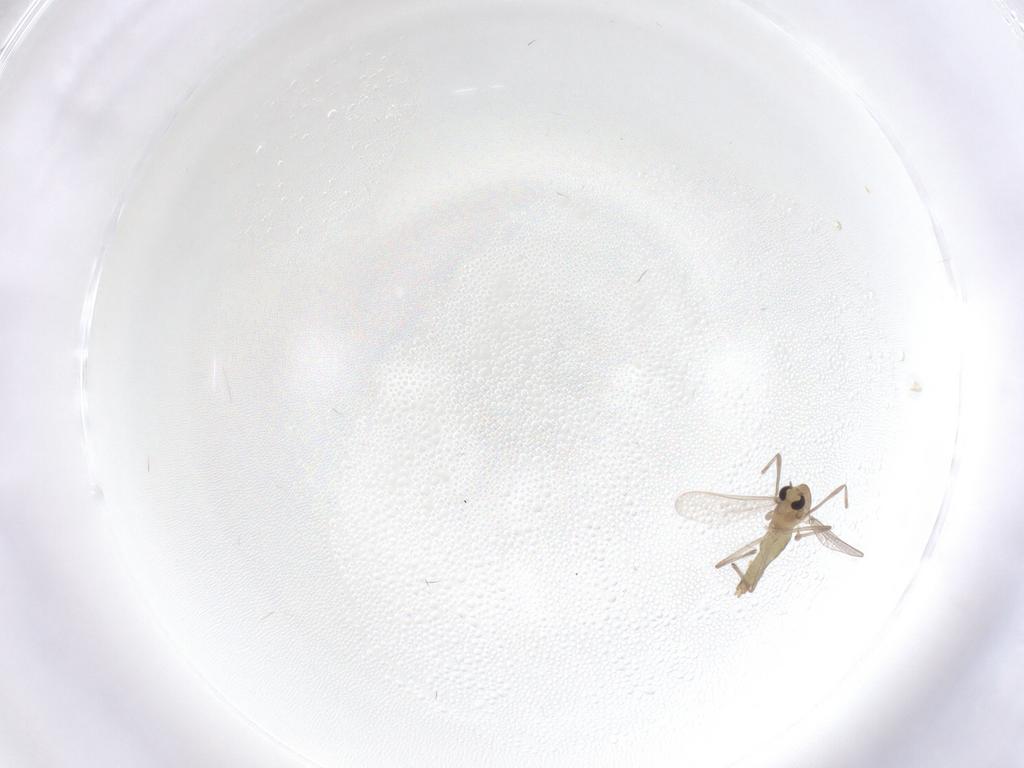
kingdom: Animalia
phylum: Arthropoda
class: Insecta
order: Diptera
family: Chironomidae
